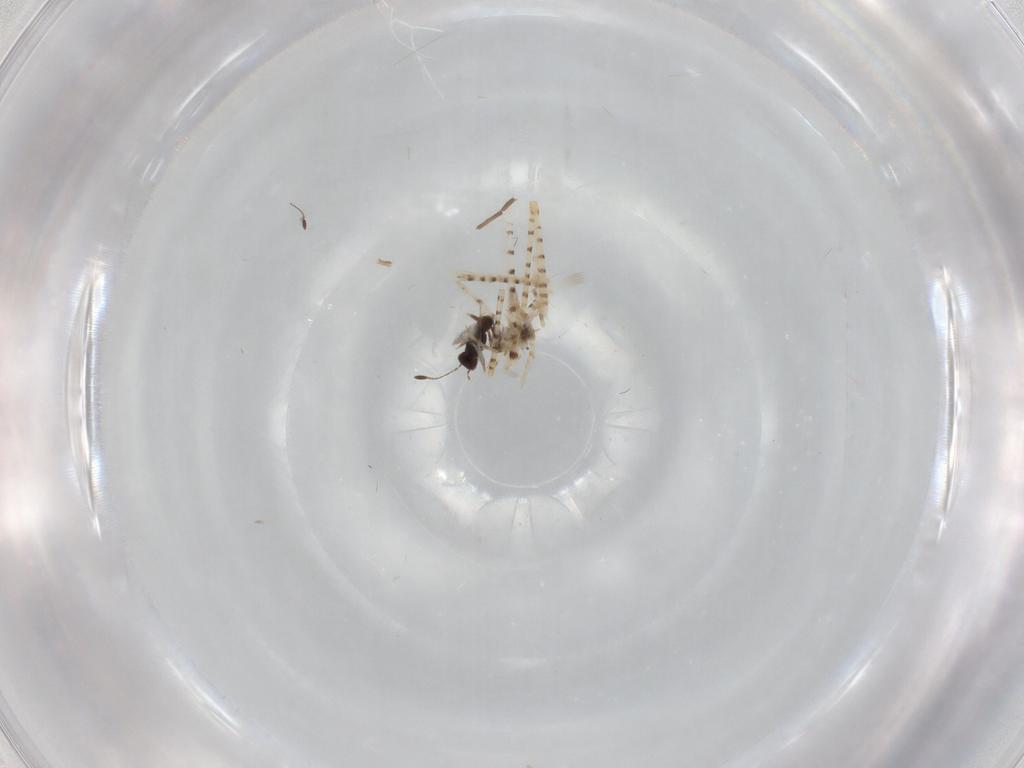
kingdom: Animalia
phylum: Arthropoda
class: Insecta
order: Hymenoptera
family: Mymaridae
